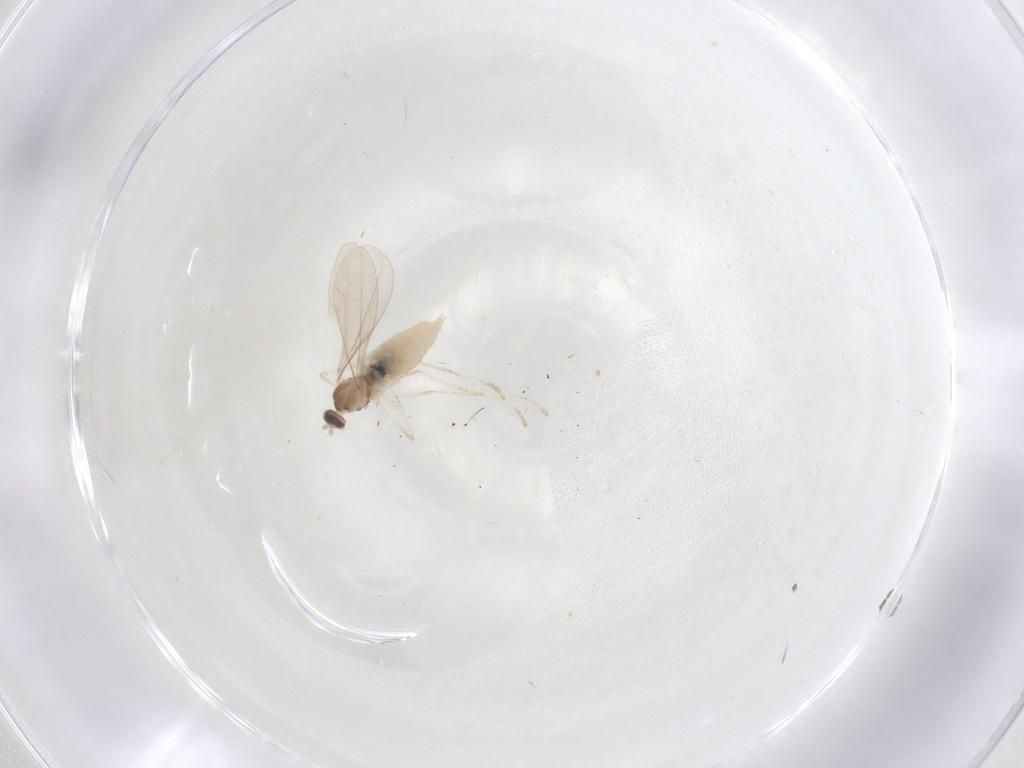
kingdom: Animalia
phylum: Arthropoda
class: Insecta
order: Diptera
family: Cecidomyiidae
